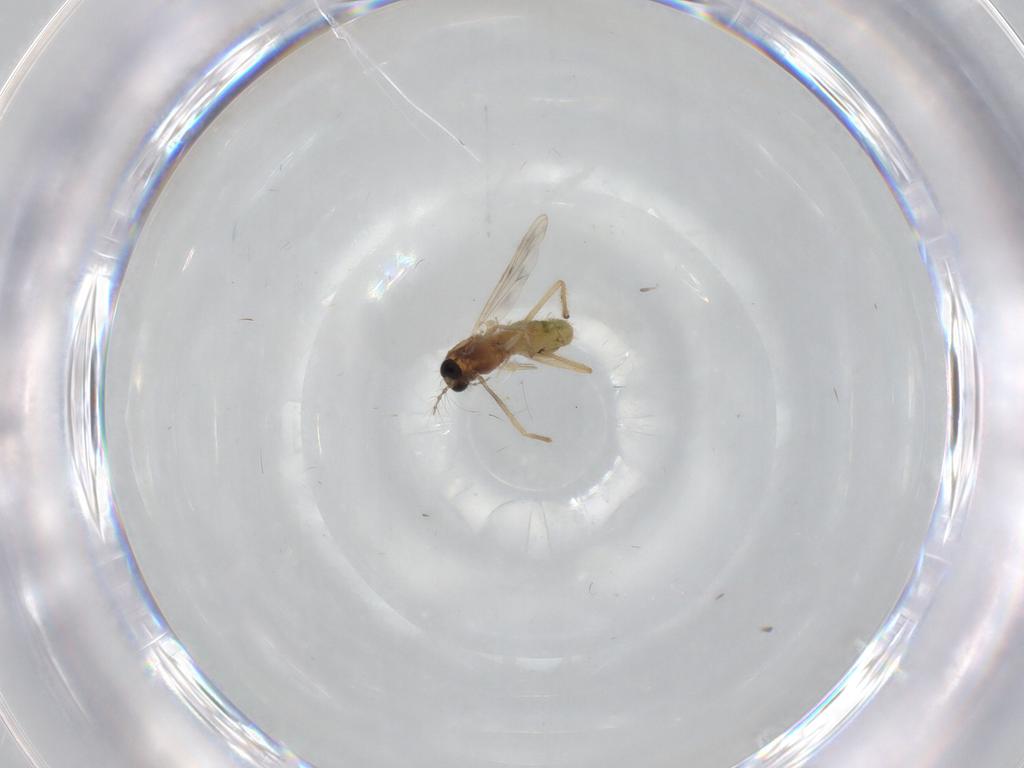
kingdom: Animalia
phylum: Arthropoda
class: Insecta
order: Diptera
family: Chironomidae
